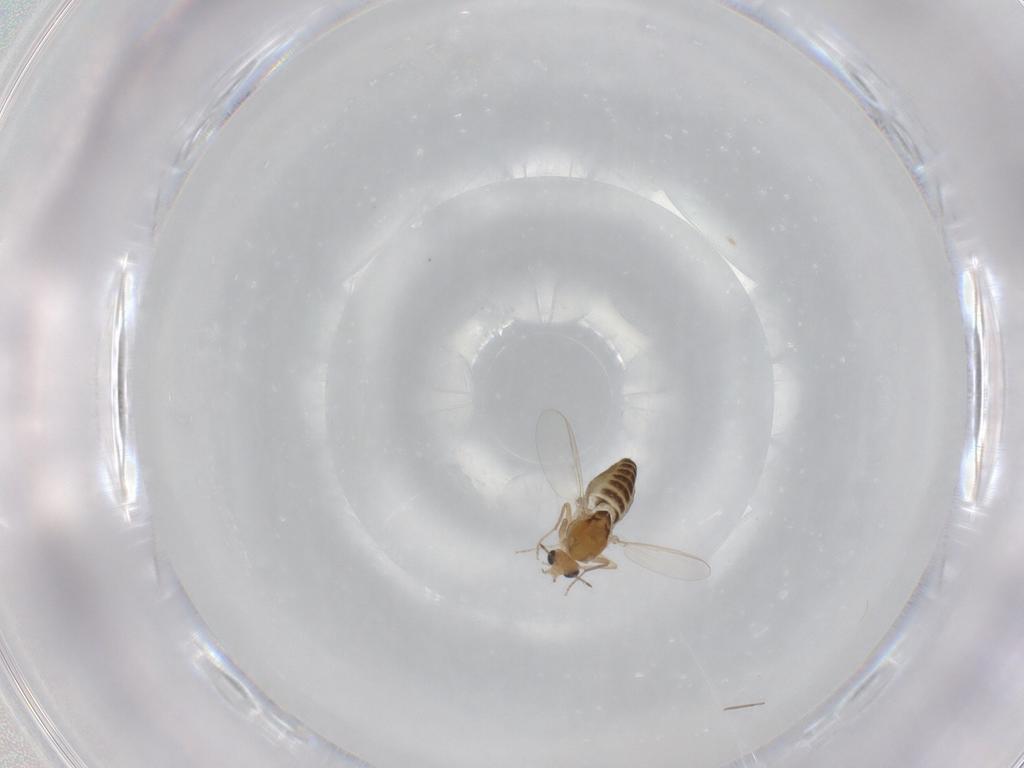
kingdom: Animalia
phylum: Arthropoda
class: Insecta
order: Diptera
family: Chironomidae
